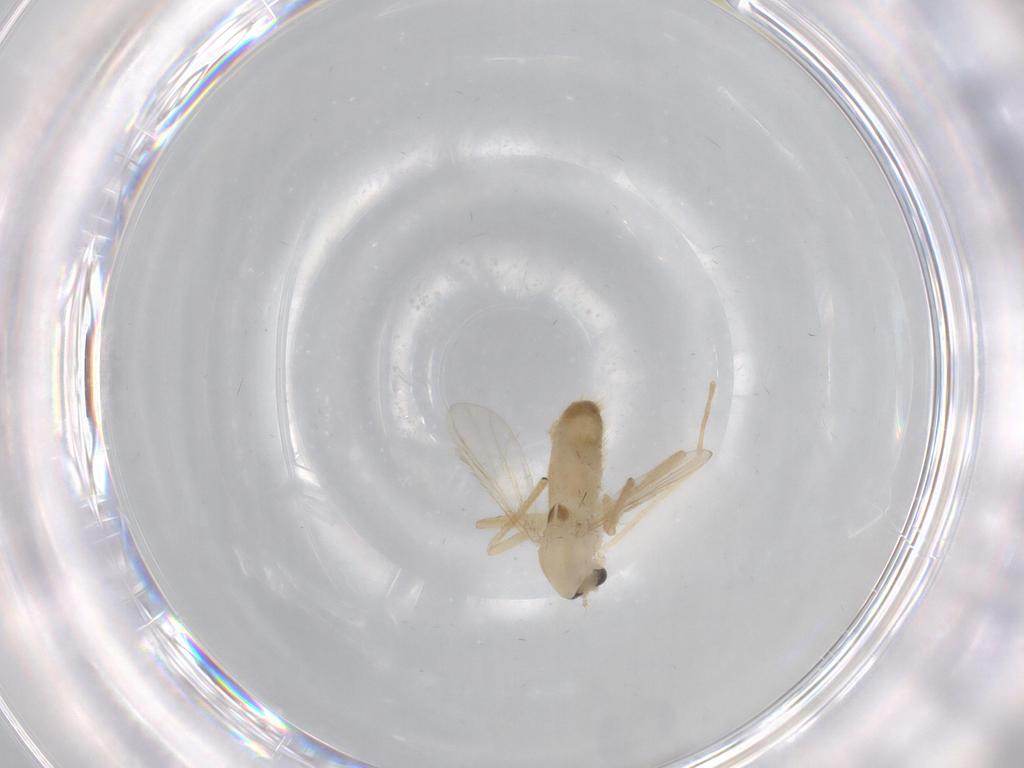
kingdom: Animalia
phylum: Arthropoda
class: Insecta
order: Diptera
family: Chironomidae
